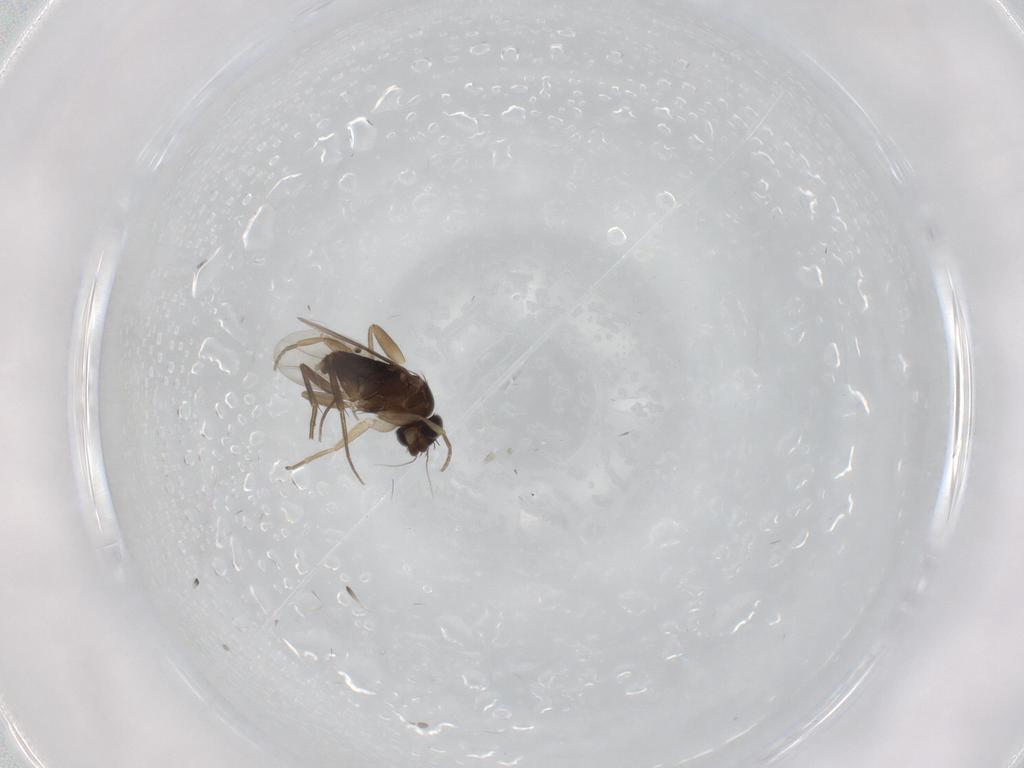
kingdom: Animalia
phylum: Arthropoda
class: Insecta
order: Diptera
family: Phoridae
